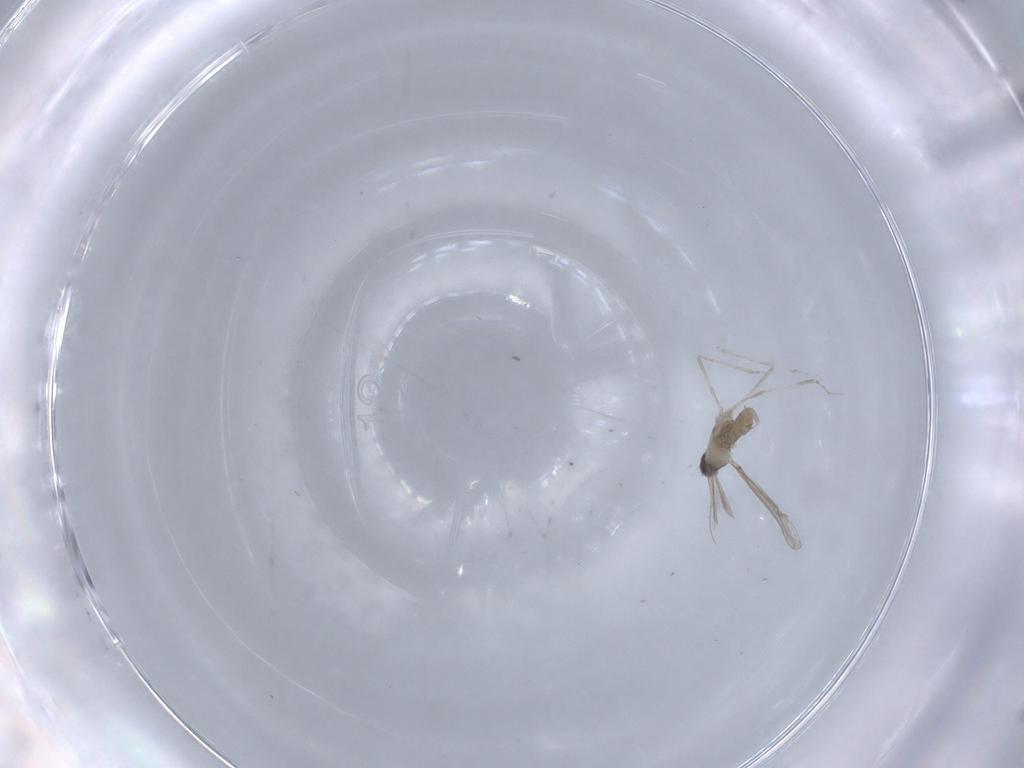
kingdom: Animalia
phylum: Arthropoda
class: Insecta
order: Diptera
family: Cecidomyiidae
